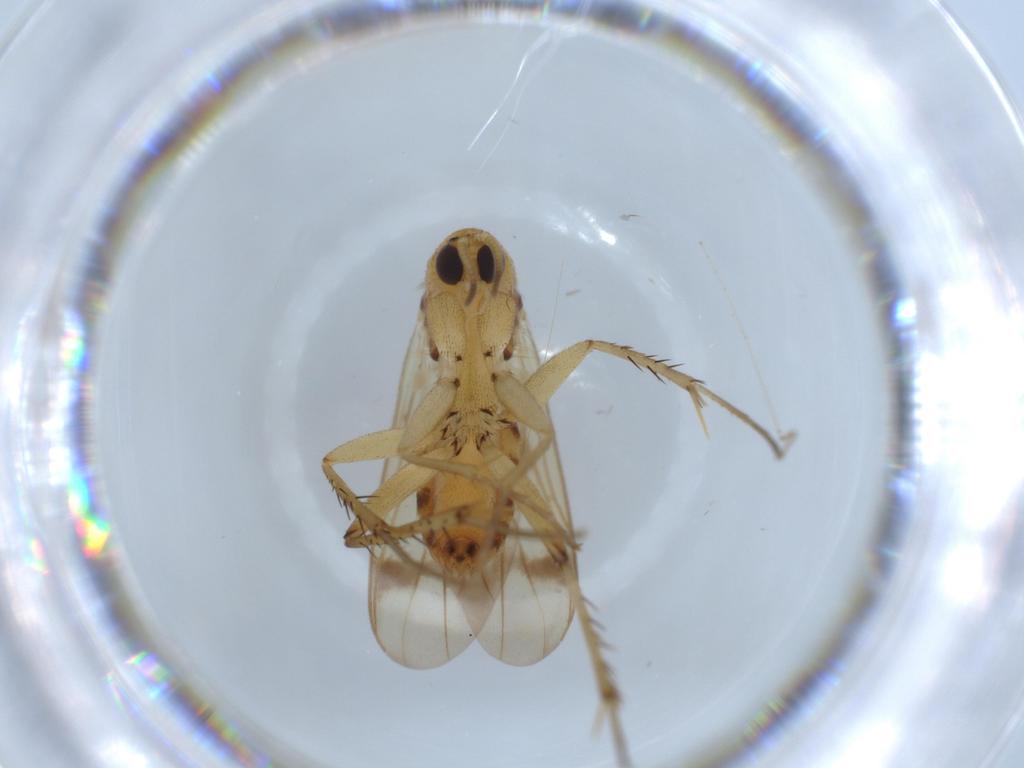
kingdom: Animalia
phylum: Arthropoda
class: Insecta
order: Diptera
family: Mycetophilidae
